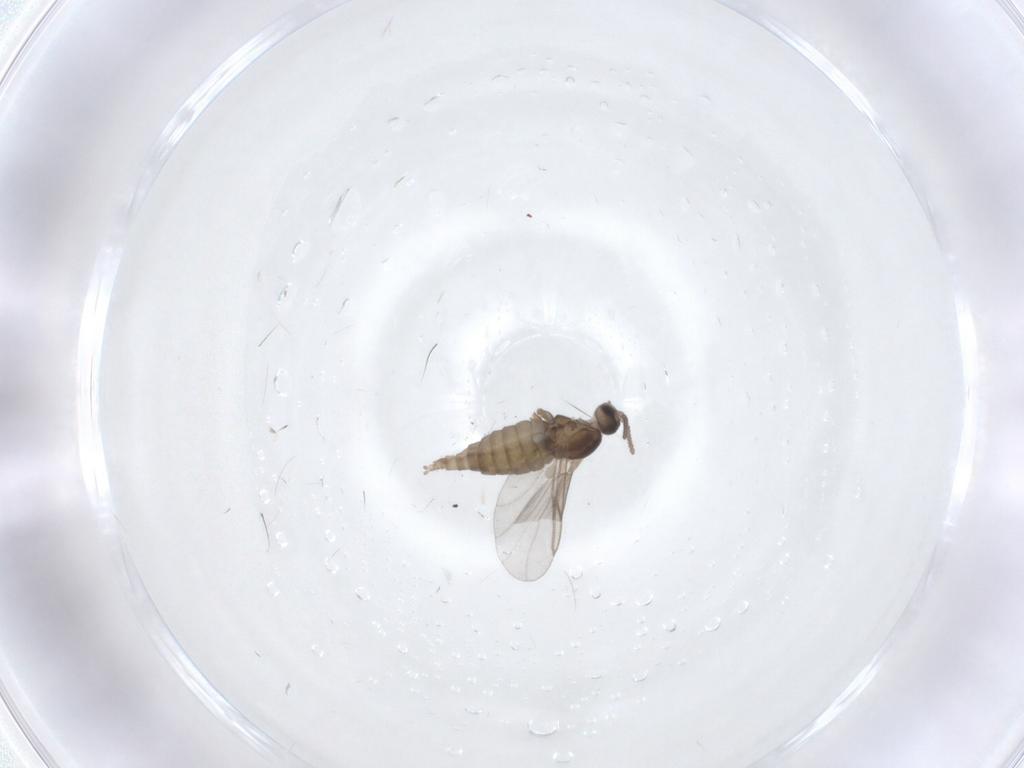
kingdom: Animalia
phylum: Arthropoda
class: Insecta
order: Diptera
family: Cecidomyiidae
